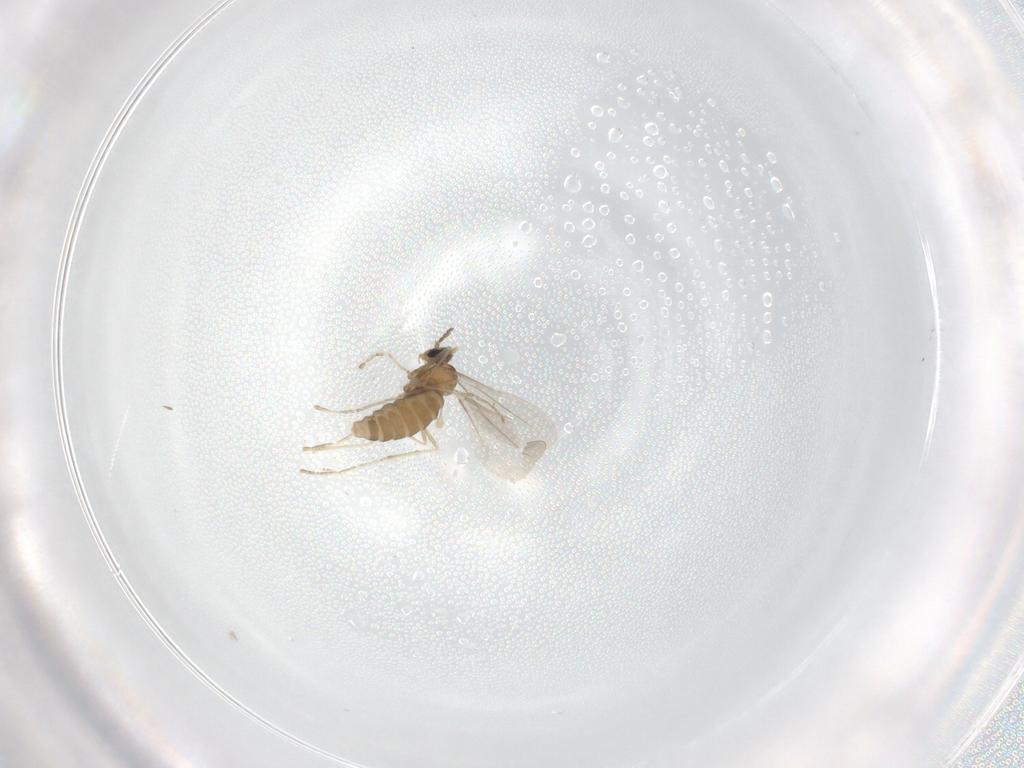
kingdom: Animalia
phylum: Arthropoda
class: Insecta
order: Diptera
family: Cecidomyiidae
